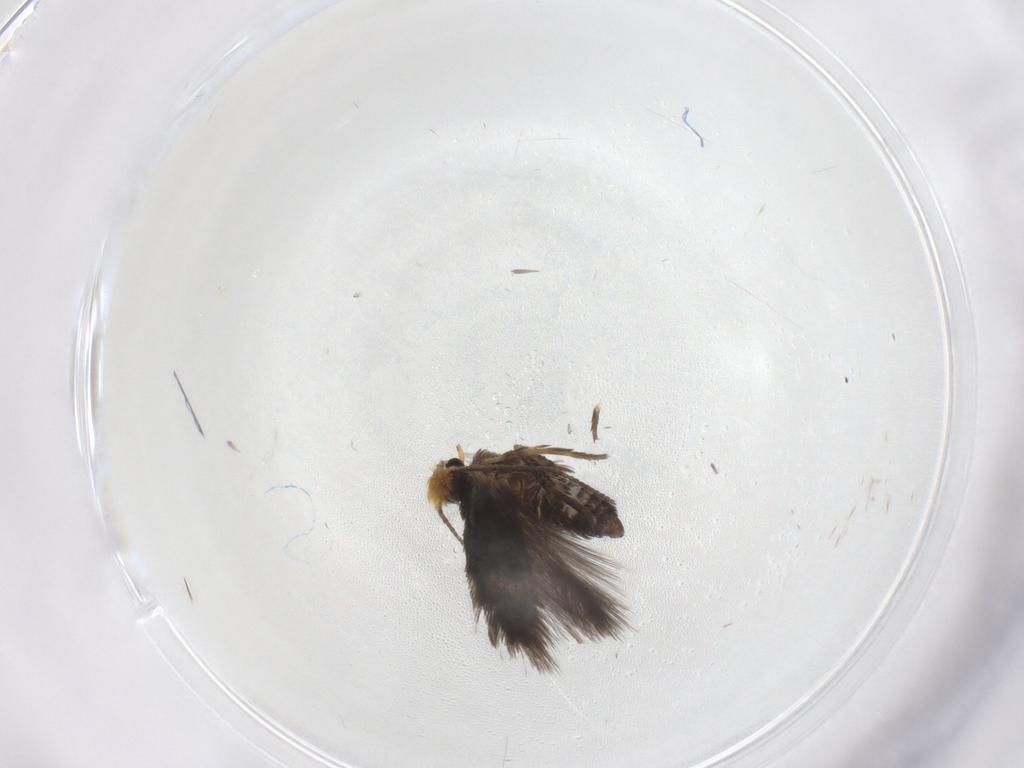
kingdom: Animalia
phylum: Arthropoda
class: Insecta
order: Lepidoptera
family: Nepticulidae
